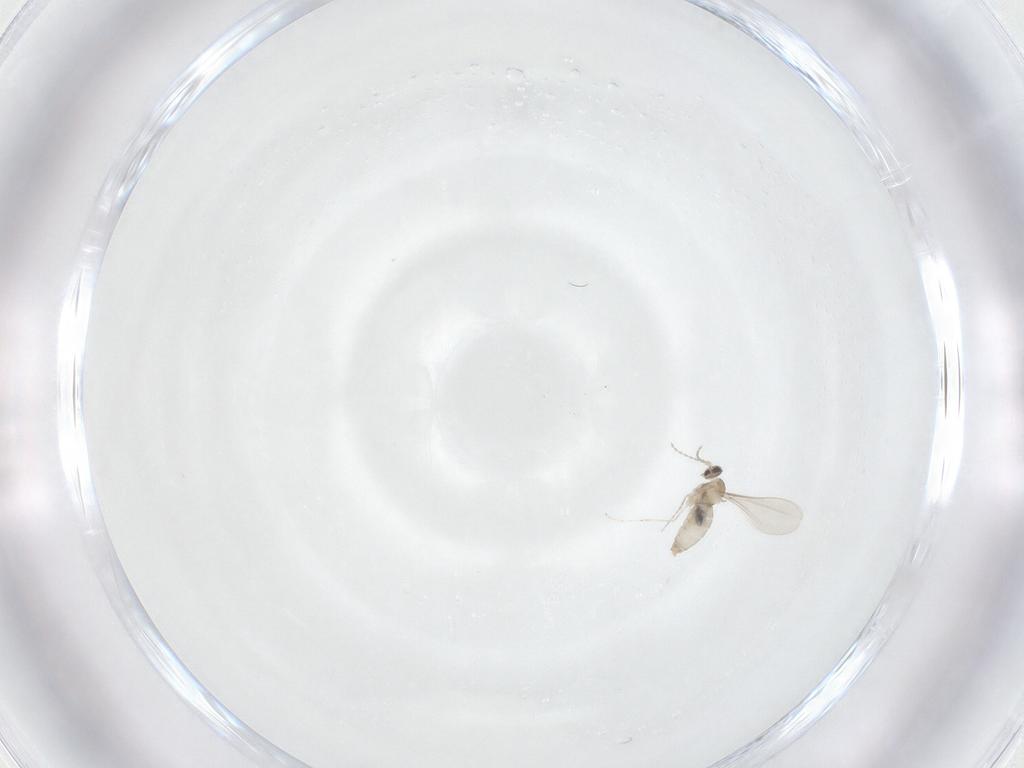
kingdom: Animalia
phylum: Arthropoda
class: Insecta
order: Diptera
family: Cecidomyiidae
